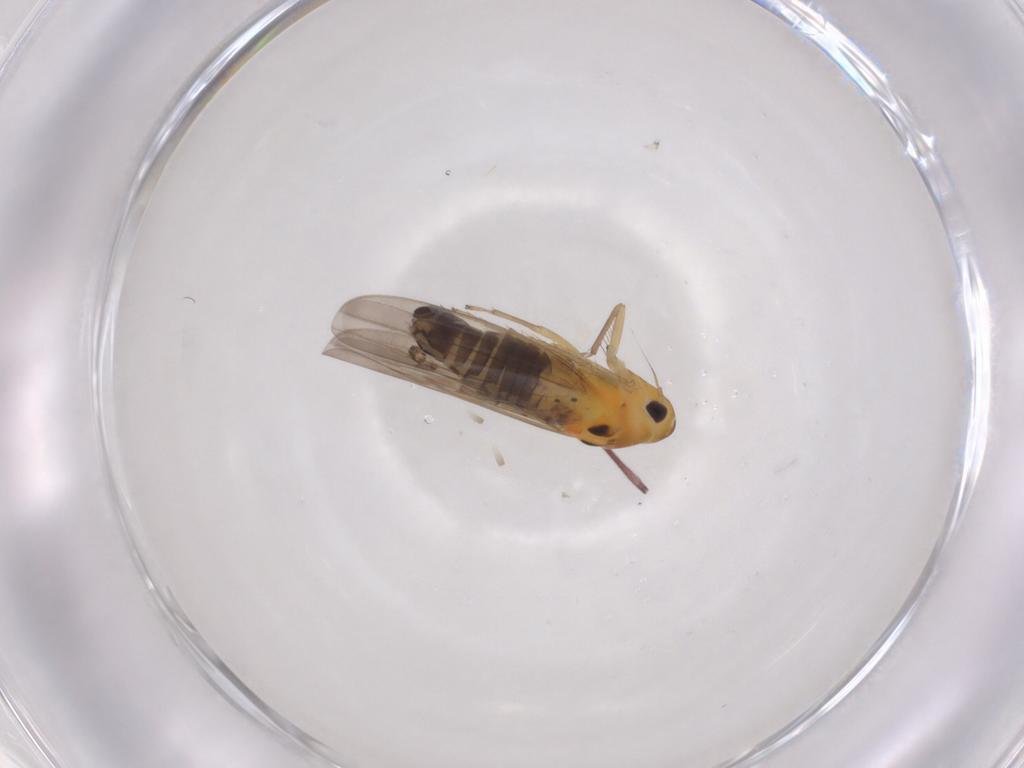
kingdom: Animalia
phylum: Arthropoda
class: Insecta
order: Hemiptera
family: Cicadellidae
